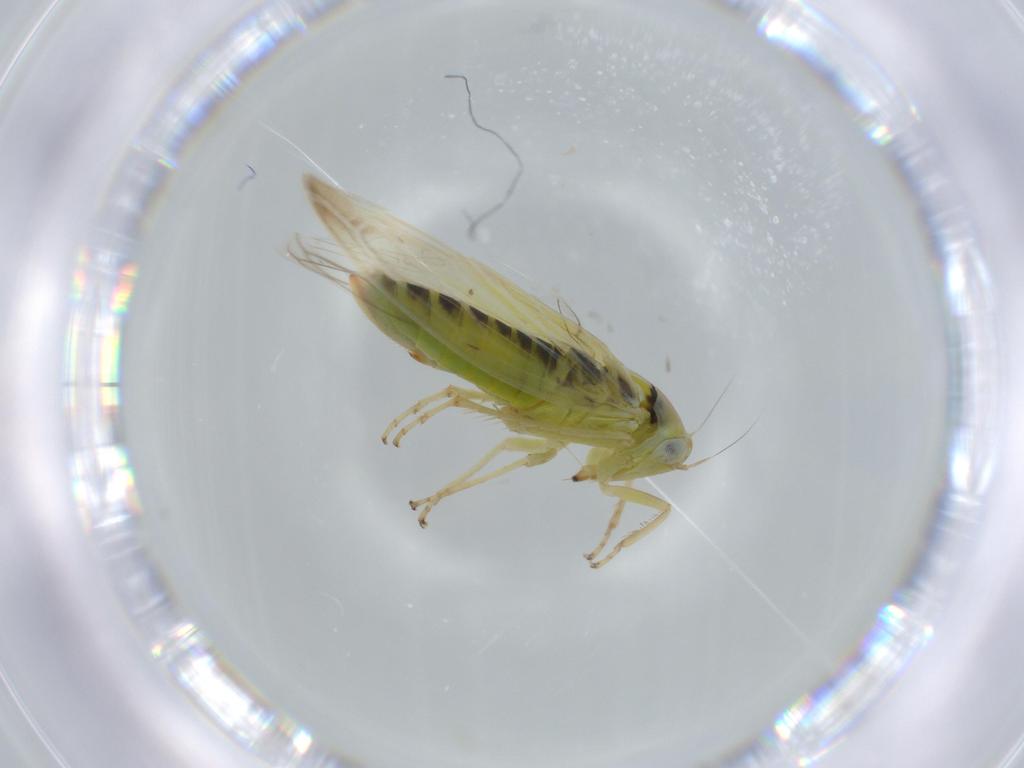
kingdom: Animalia
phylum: Arthropoda
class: Insecta
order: Hemiptera
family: Cicadellidae
